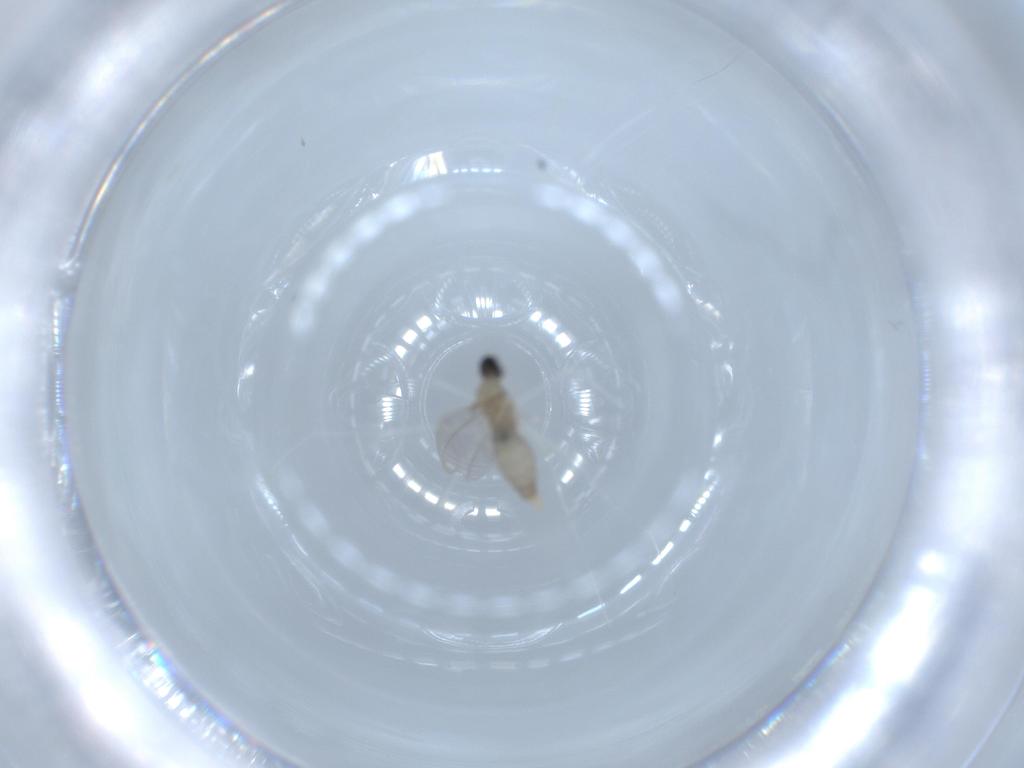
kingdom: Animalia
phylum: Arthropoda
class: Insecta
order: Diptera
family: Cecidomyiidae
